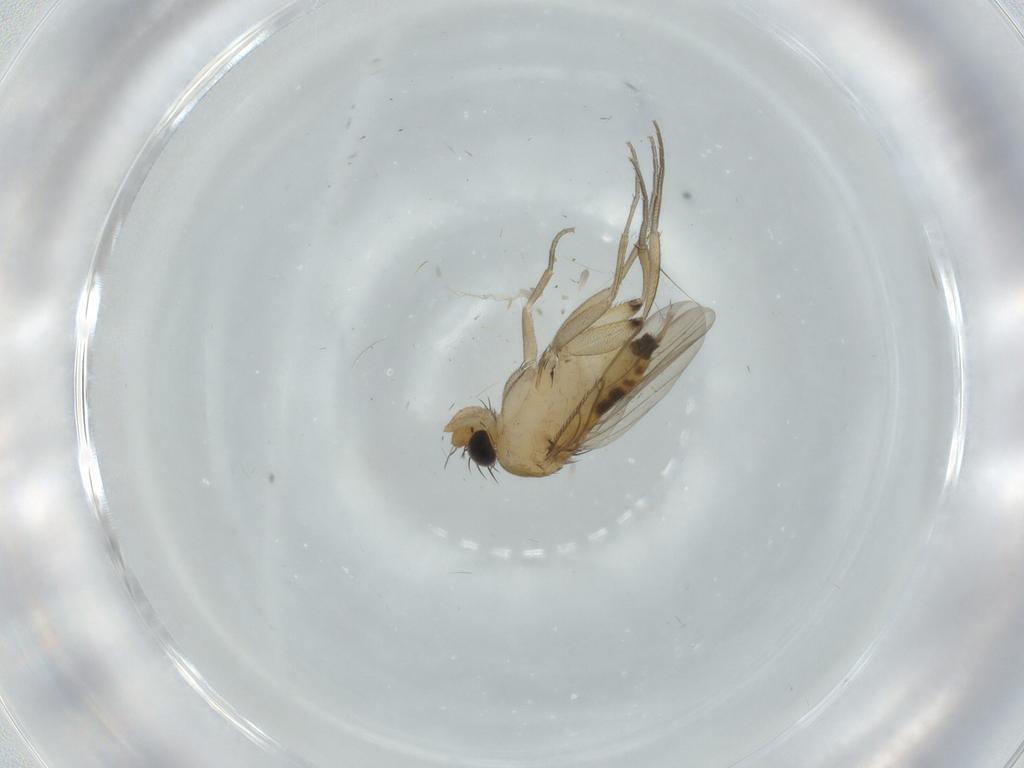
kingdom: Animalia
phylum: Arthropoda
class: Insecta
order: Diptera
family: Phoridae
